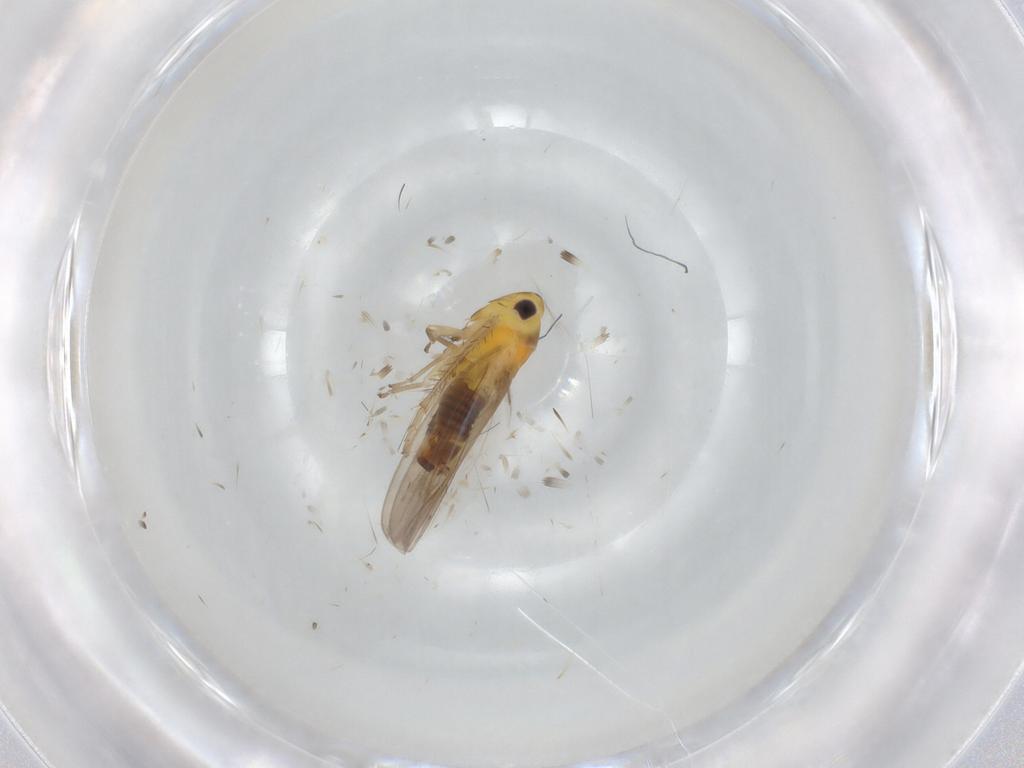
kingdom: Animalia
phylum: Arthropoda
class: Insecta
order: Hemiptera
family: Cicadellidae
